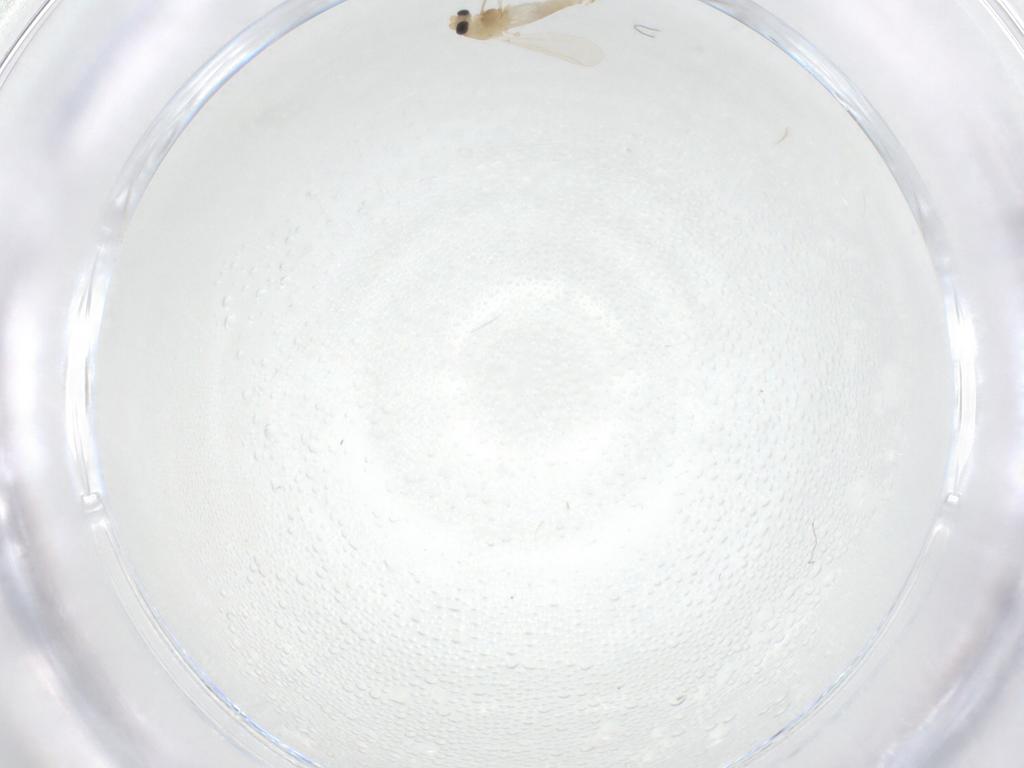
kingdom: Animalia
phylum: Arthropoda
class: Insecta
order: Diptera
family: Chironomidae
